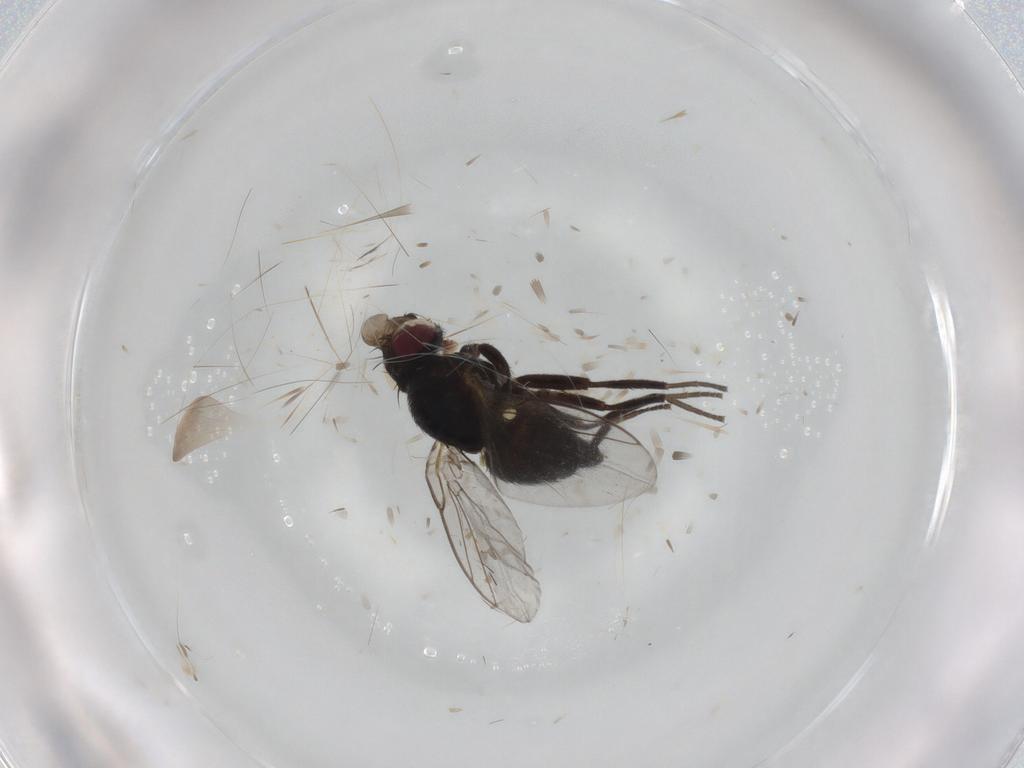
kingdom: Animalia
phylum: Arthropoda
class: Insecta
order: Diptera
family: Agromyzidae
